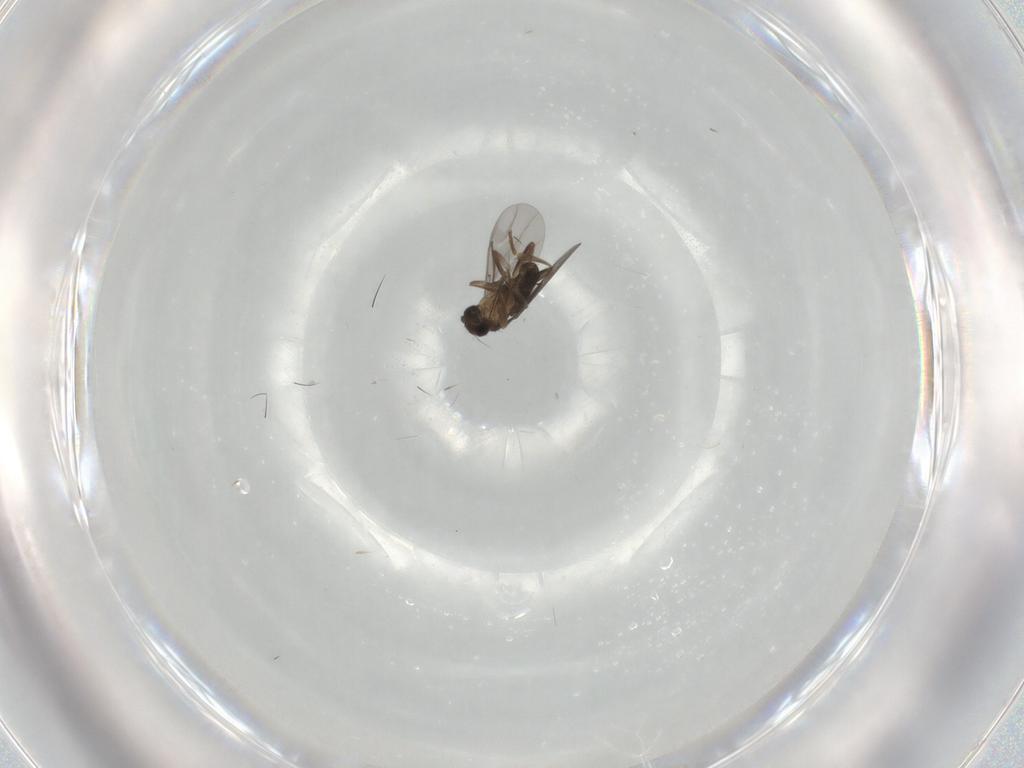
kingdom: Animalia
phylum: Arthropoda
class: Insecta
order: Diptera
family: Phoridae
